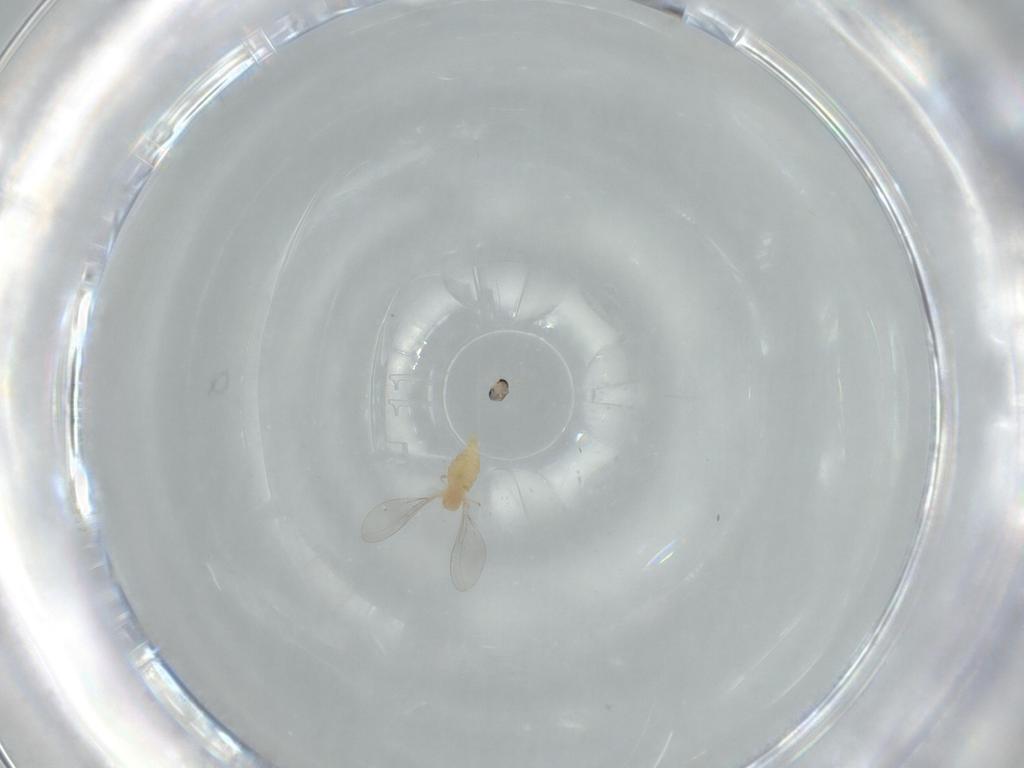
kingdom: Animalia
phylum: Arthropoda
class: Insecta
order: Diptera
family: Cecidomyiidae
